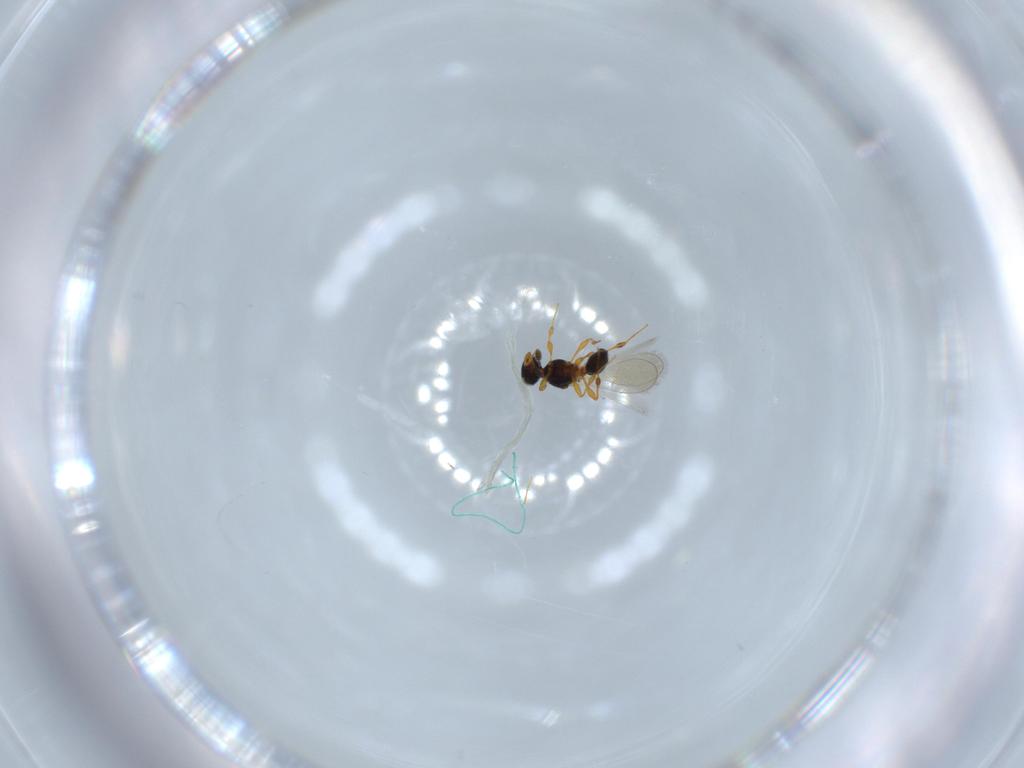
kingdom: Animalia
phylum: Arthropoda
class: Insecta
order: Hymenoptera
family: Platygastridae
